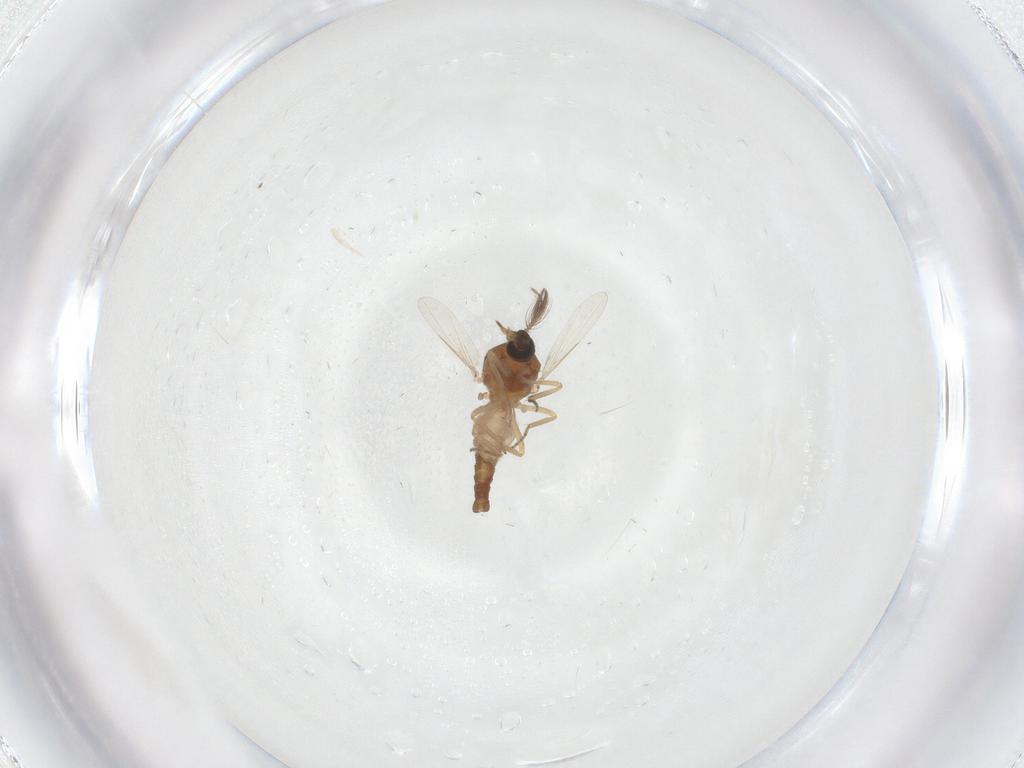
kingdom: Animalia
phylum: Arthropoda
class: Insecta
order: Diptera
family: Ceratopogonidae
